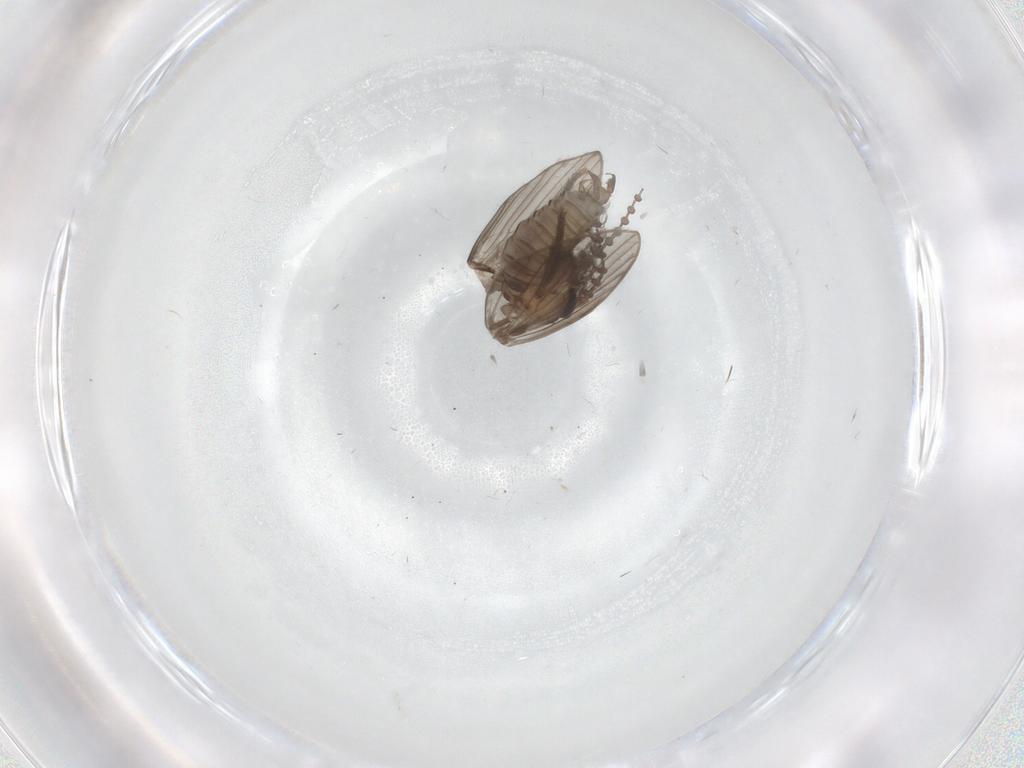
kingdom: Animalia
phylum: Arthropoda
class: Insecta
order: Diptera
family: Psychodidae
